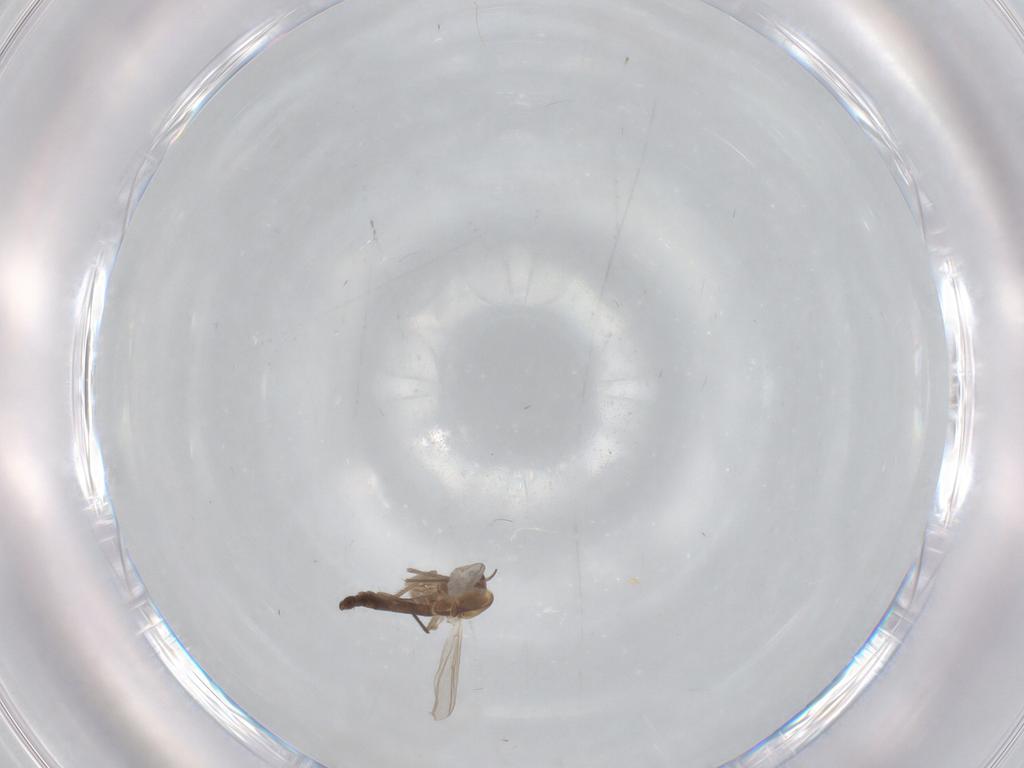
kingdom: Animalia
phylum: Arthropoda
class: Insecta
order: Diptera
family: Chironomidae
